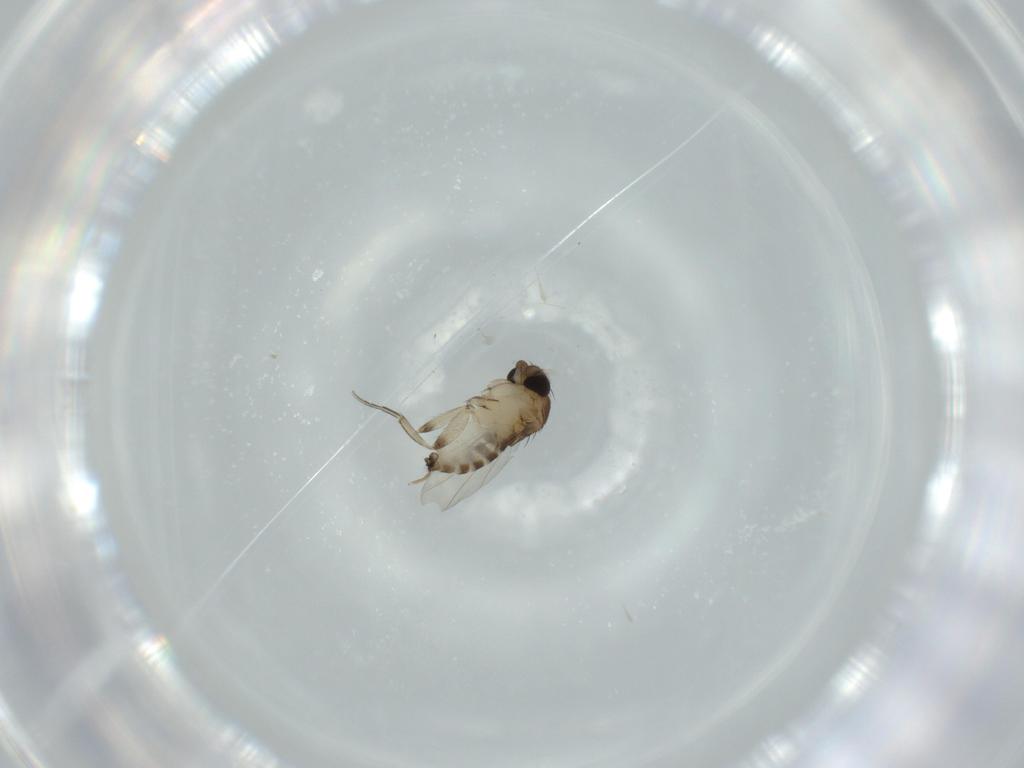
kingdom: Animalia
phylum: Arthropoda
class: Insecta
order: Diptera
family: Phoridae
